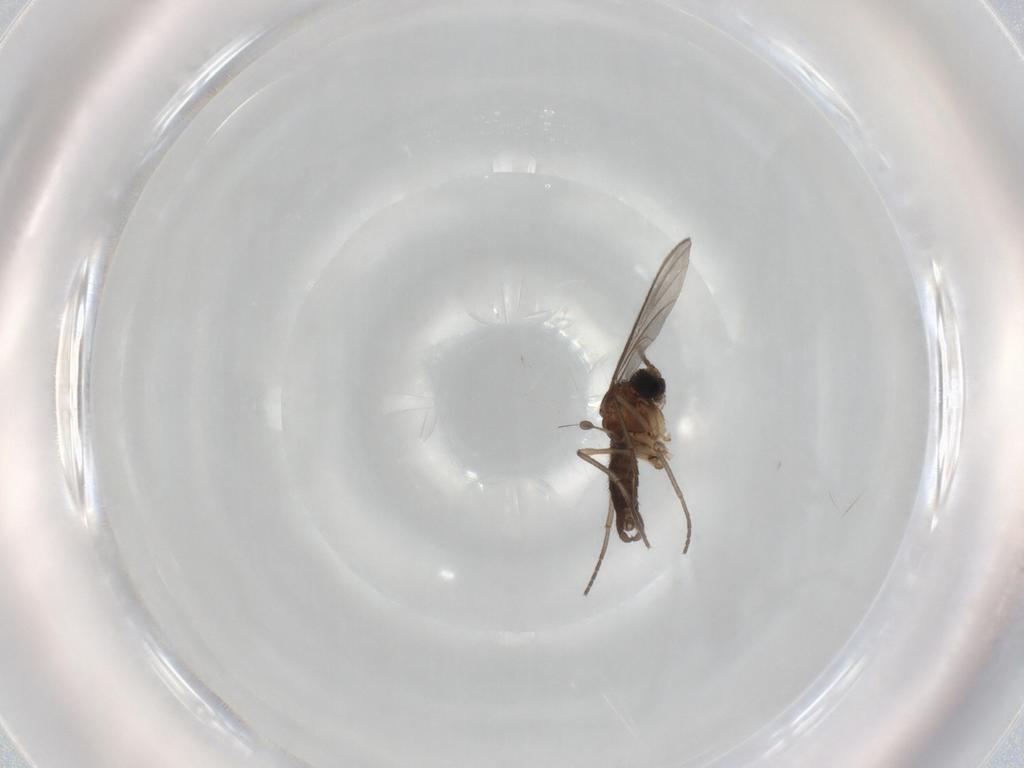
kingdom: Animalia
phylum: Arthropoda
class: Insecta
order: Diptera
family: Sciaridae
